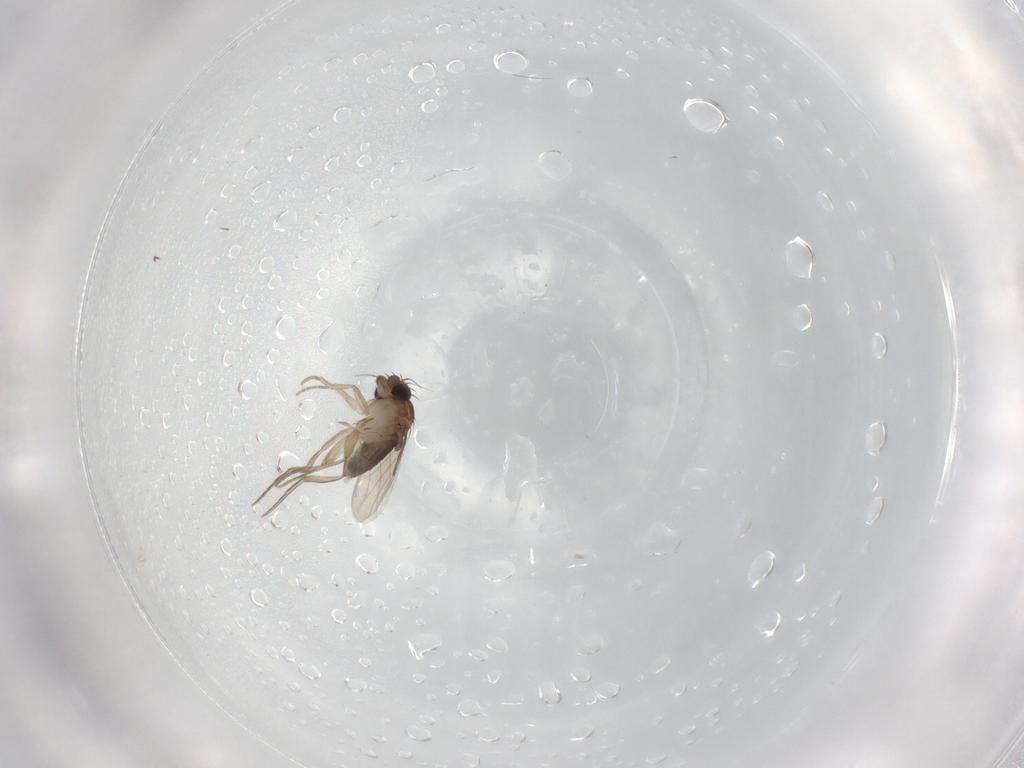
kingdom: Animalia
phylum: Arthropoda
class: Insecta
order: Diptera
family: Phoridae
